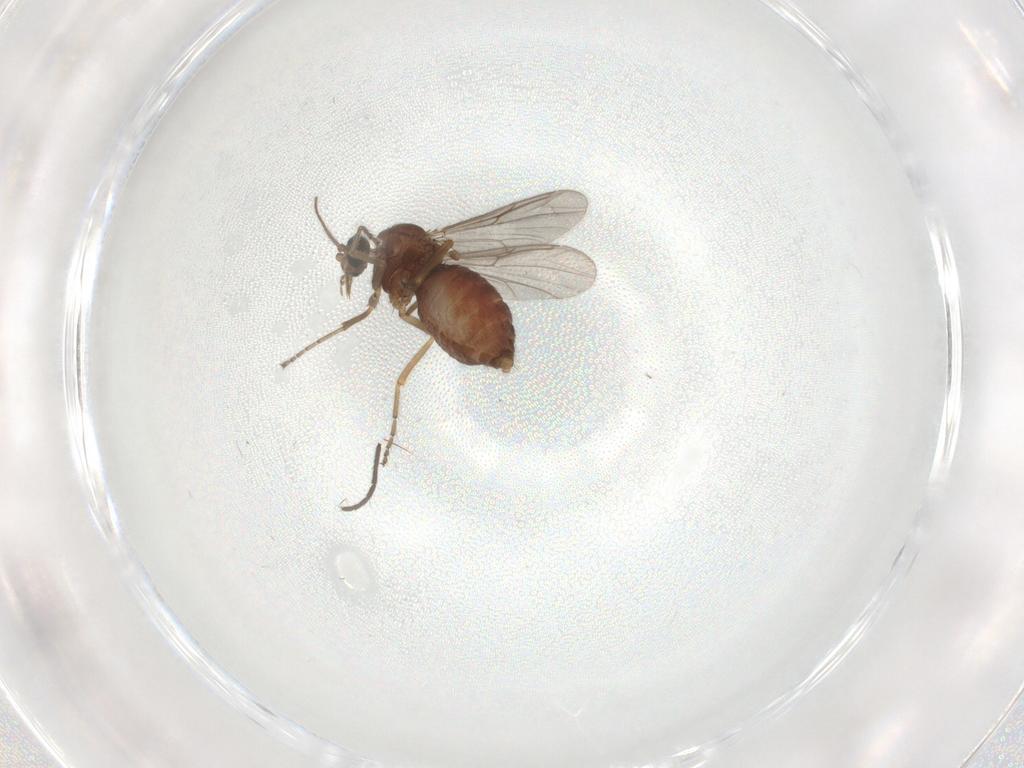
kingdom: Animalia
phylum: Arthropoda
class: Insecta
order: Diptera
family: Ceratopogonidae
